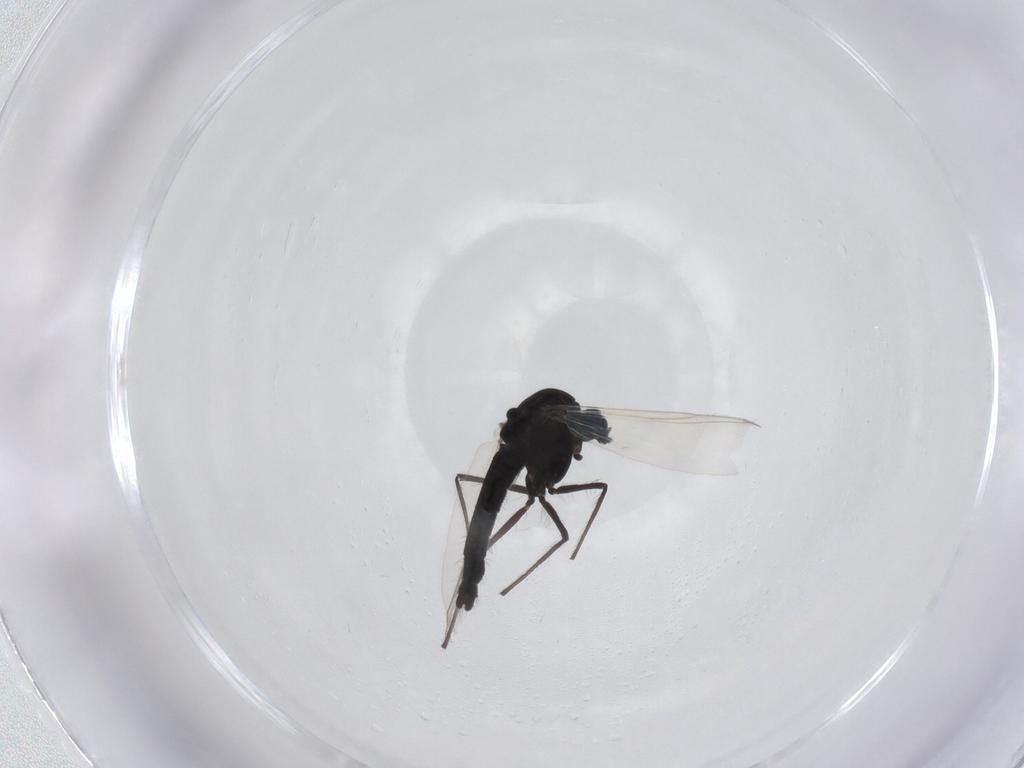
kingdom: Animalia
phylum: Arthropoda
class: Insecta
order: Diptera
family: Chironomidae
